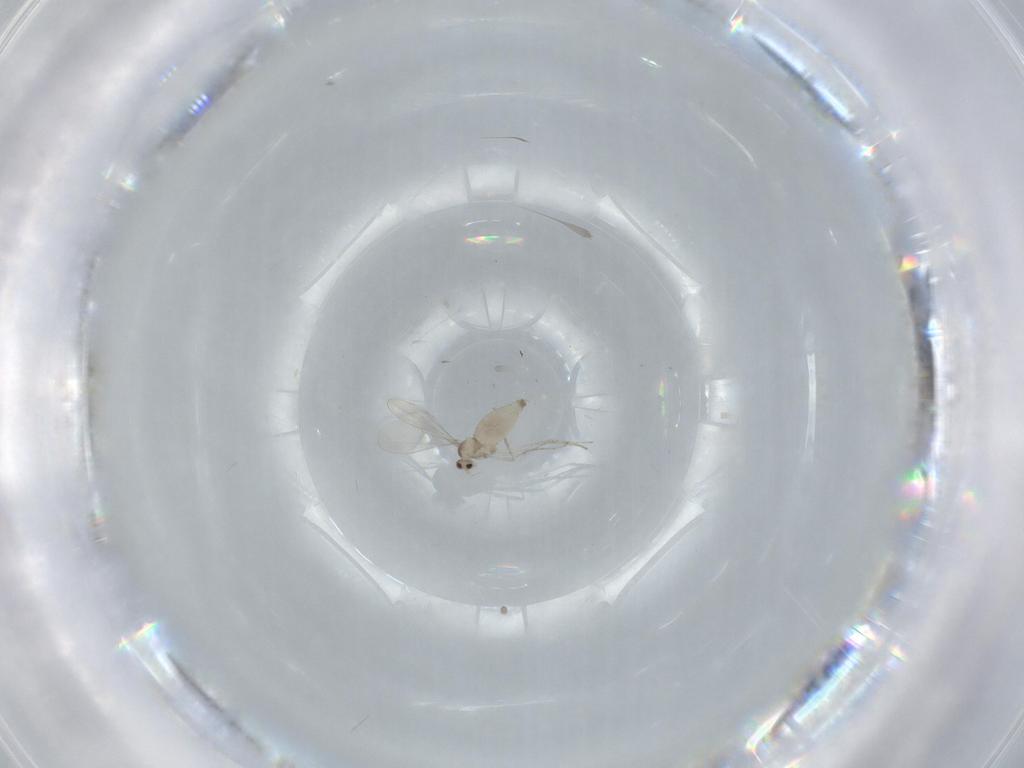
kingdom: Animalia
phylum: Arthropoda
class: Insecta
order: Diptera
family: Cecidomyiidae
